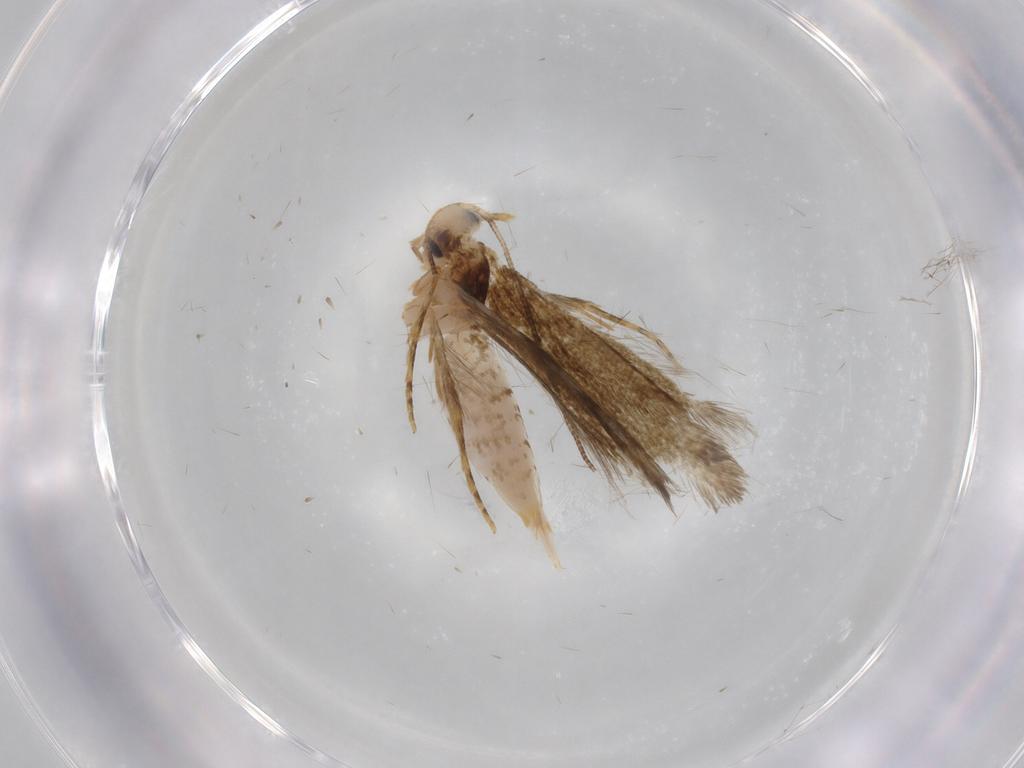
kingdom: Animalia
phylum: Arthropoda
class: Insecta
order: Lepidoptera
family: Tineidae
